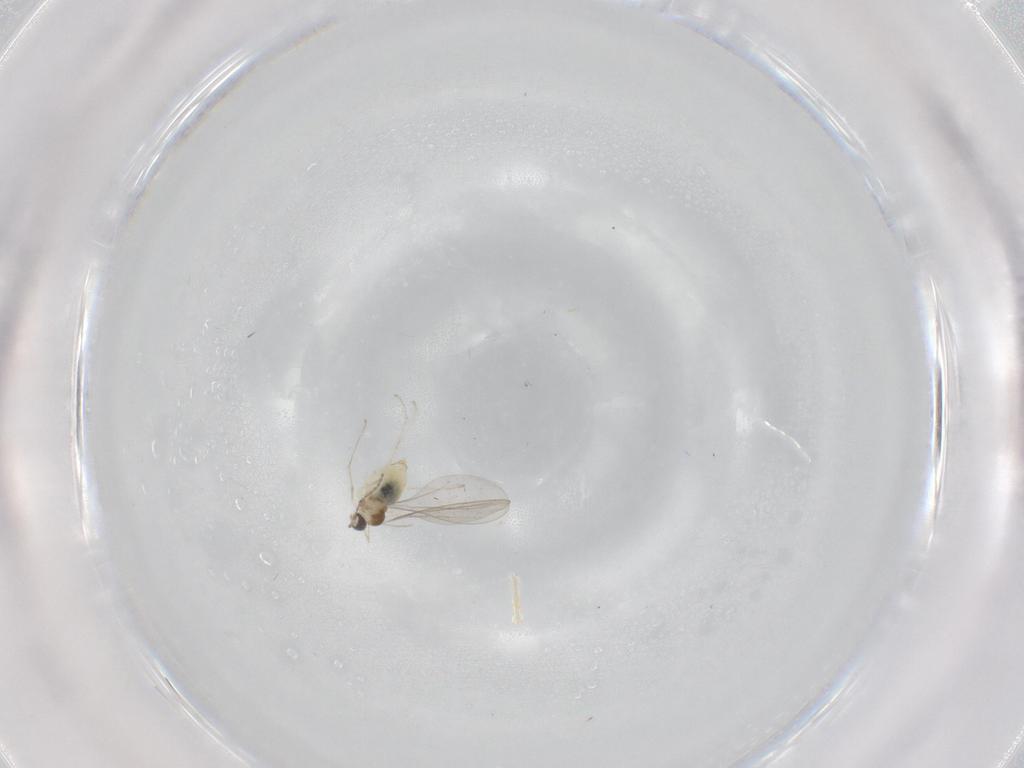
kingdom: Animalia
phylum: Arthropoda
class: Insecta
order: Diptera
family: Cecidomyiidae
